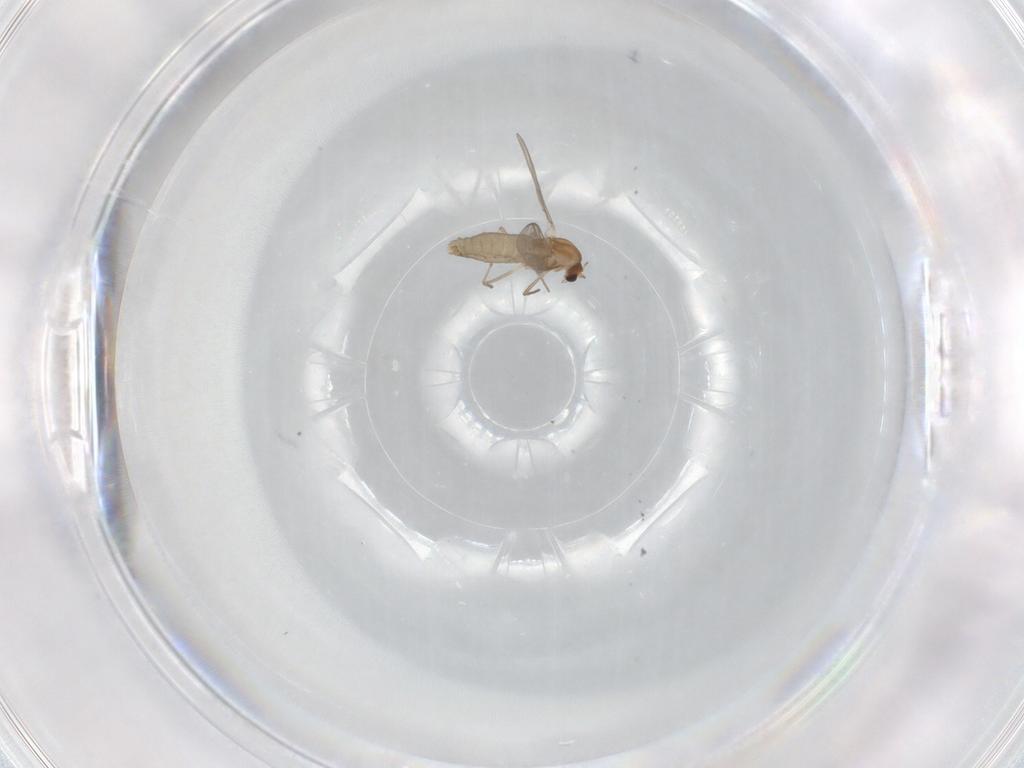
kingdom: Animalia
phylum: Arthropoda
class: Insecta
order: Diptera
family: Chironomidae
